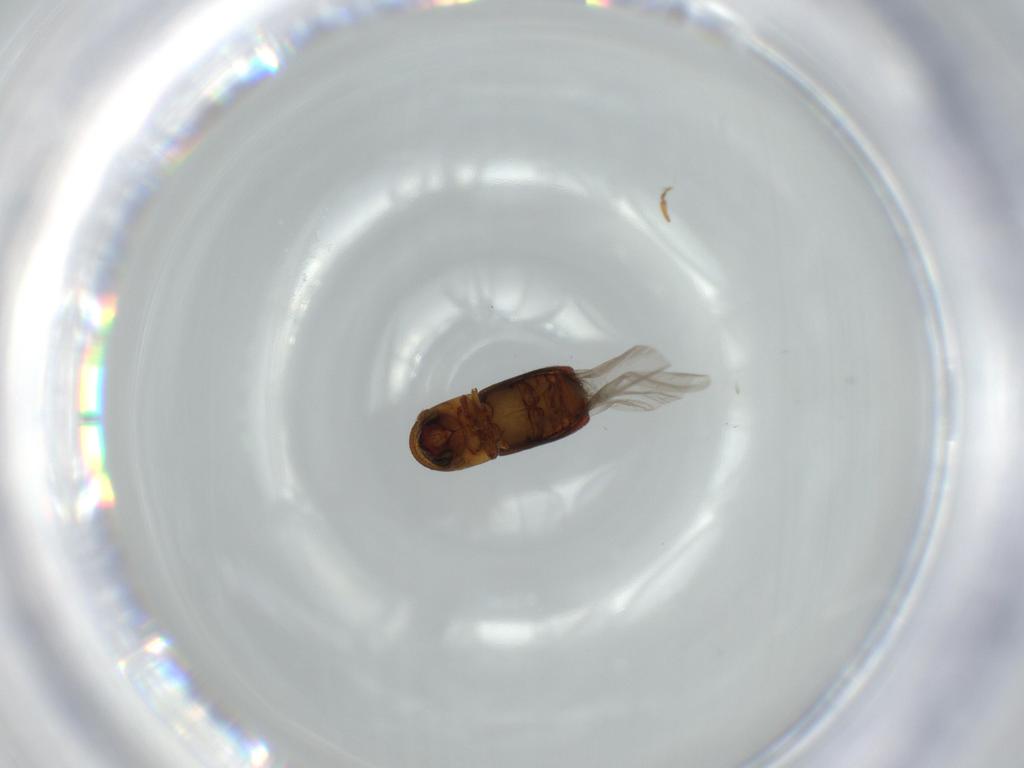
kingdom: Animalia
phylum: Arthropoda
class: Insecta
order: Coleoptera
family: Curculionidae
